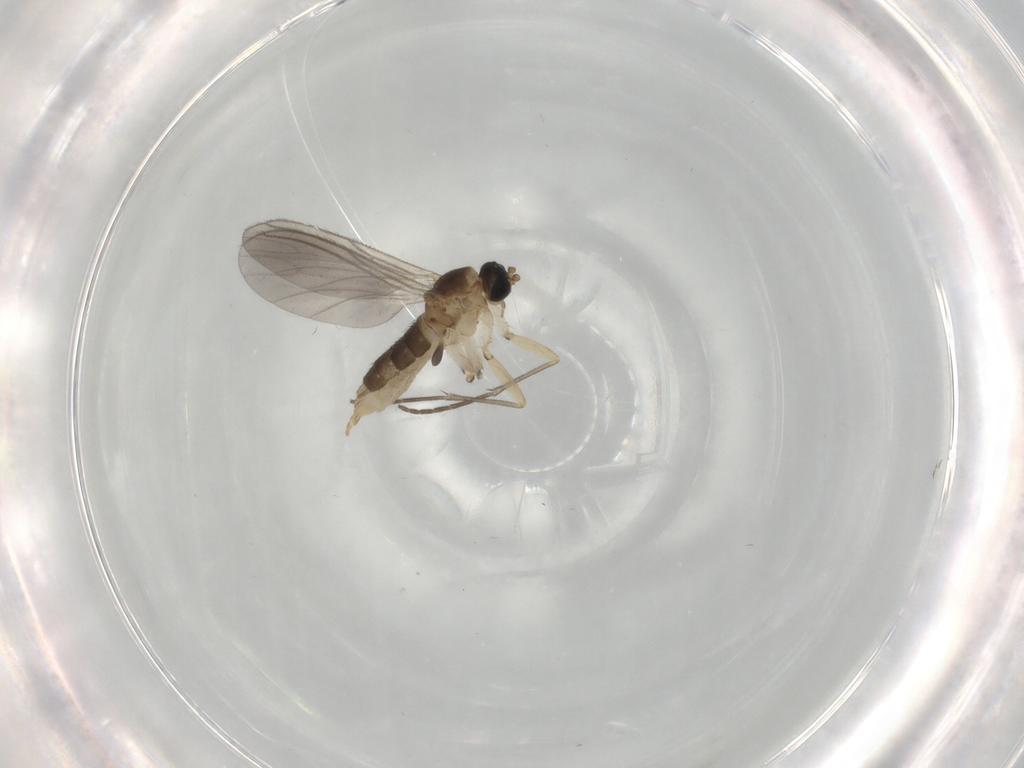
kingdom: Animalia
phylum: Arthropoda
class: Insecta
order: Diptera
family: Sciaridae
